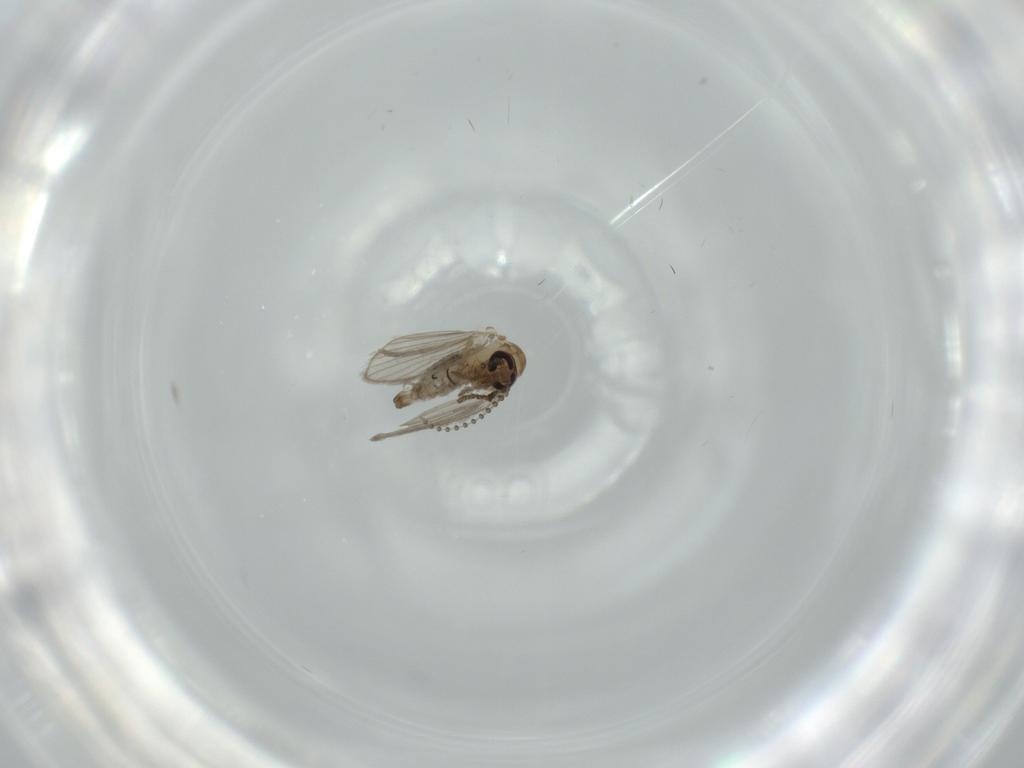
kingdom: Animalia
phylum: Arthropoda
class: Insecta
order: Diptera
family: Psychodidae
